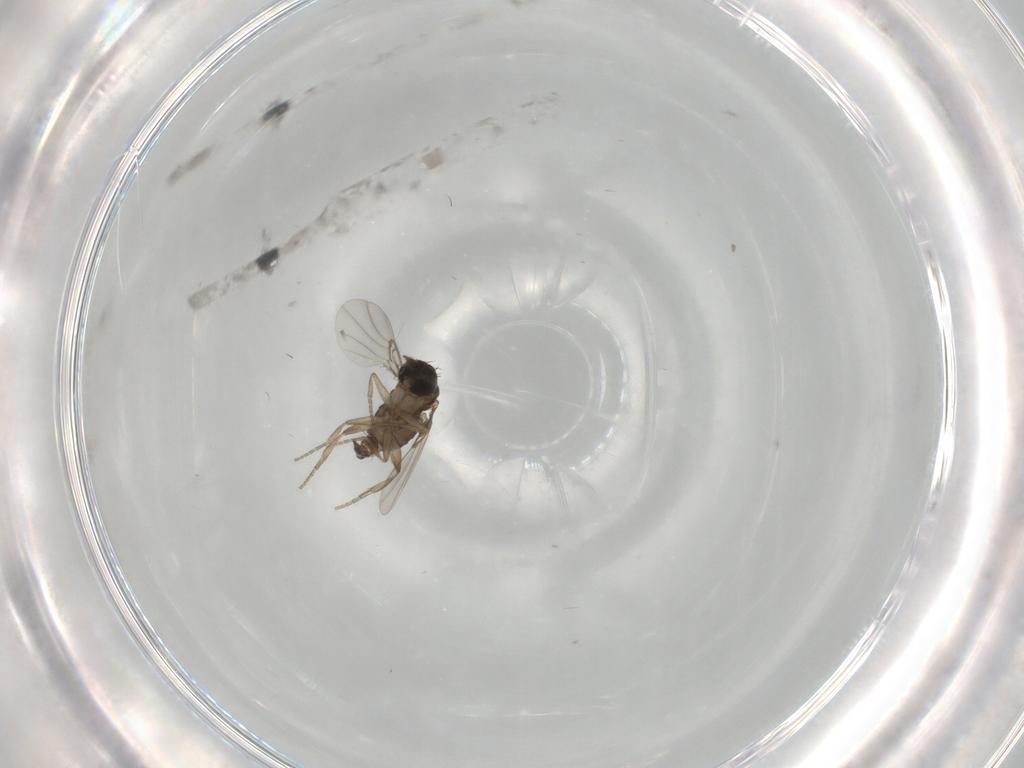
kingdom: Animalia
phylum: Arthropoda
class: Insecta
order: Diptera
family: Phoridae
